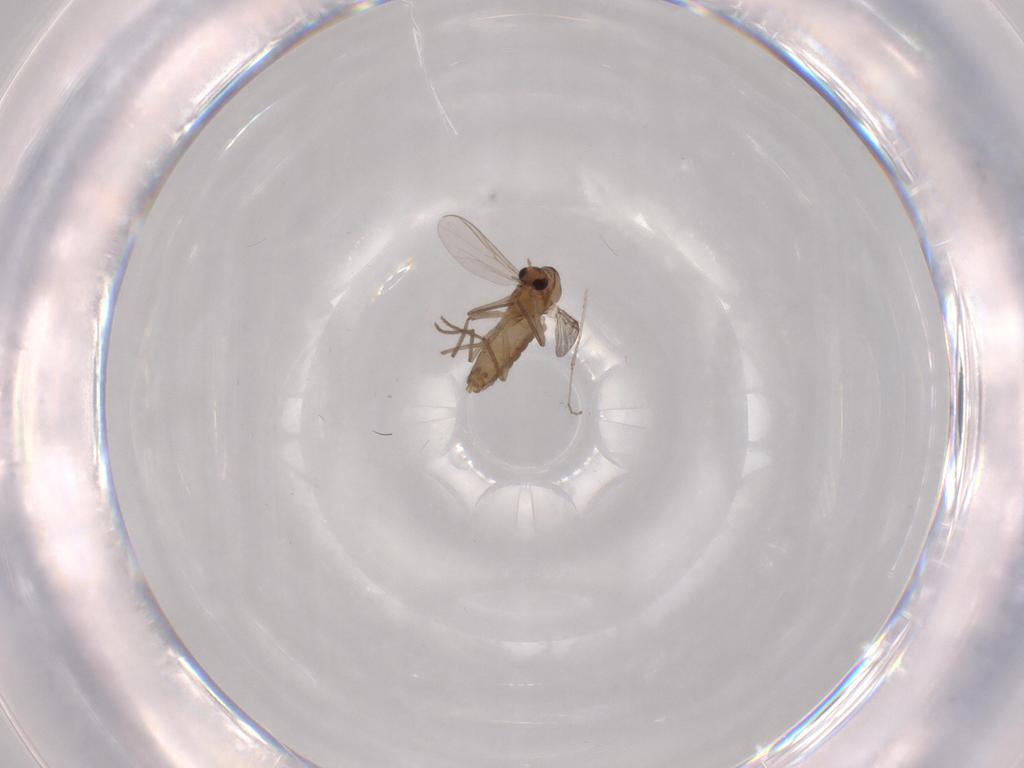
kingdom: Animalia
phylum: Arthropoda
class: Insecta
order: Diptera
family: Chironomidae
